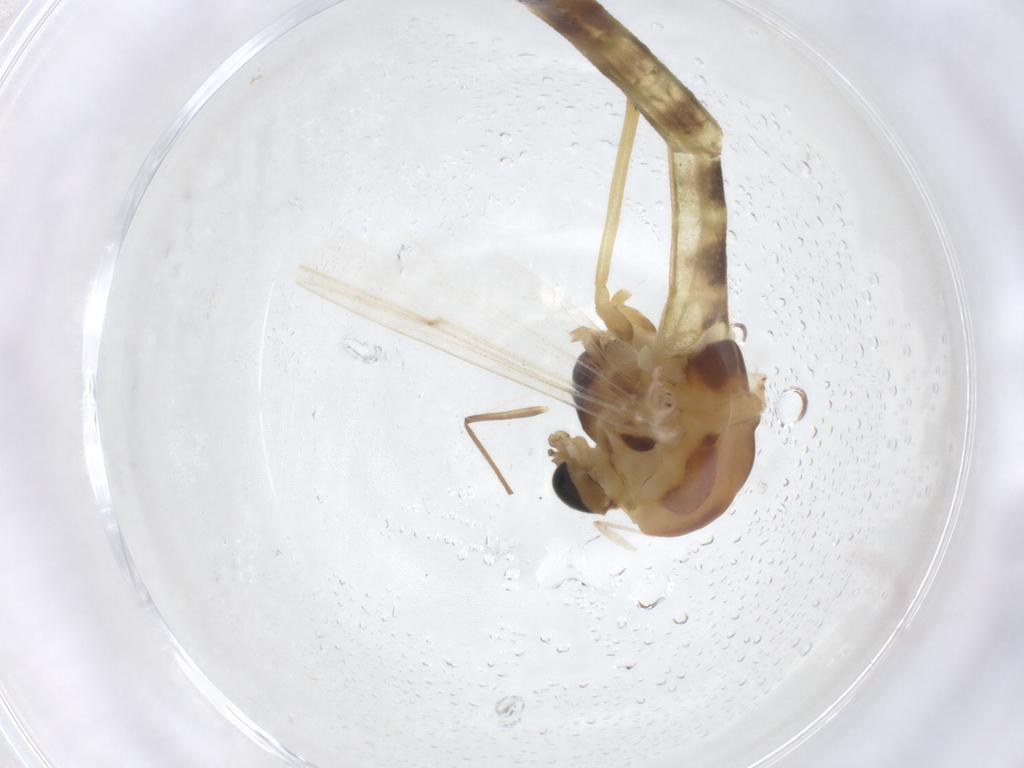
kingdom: Animalia
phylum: Arthropoda
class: Insecta
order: Diptera
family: Chironomidae
